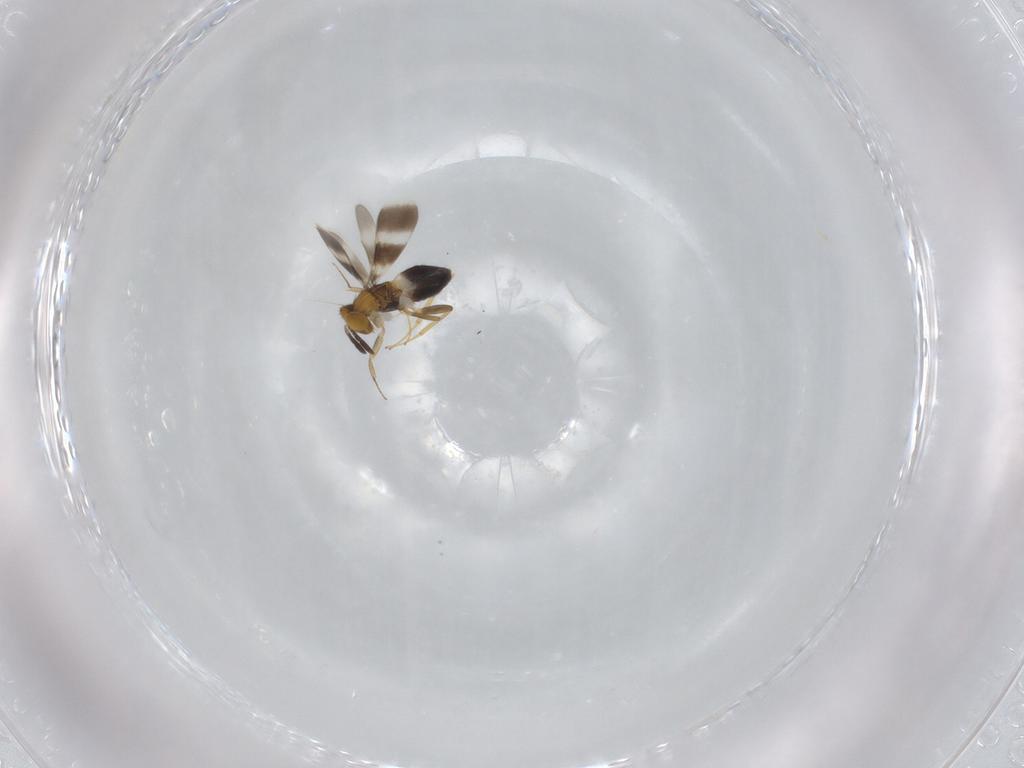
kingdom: Animalia
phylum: Arthropoda
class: Insecta
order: Hymenoptera
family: Aphelinidae
